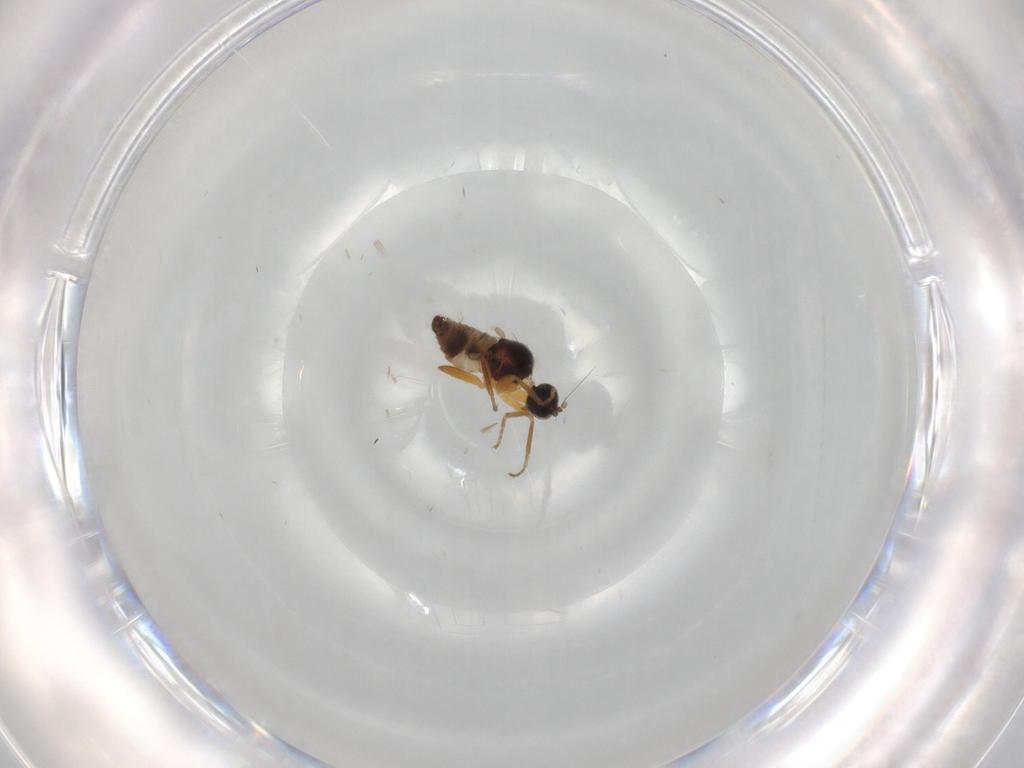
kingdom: Animalia
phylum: Arthropoda
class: Insecta
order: Diptera
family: Hybotidae
